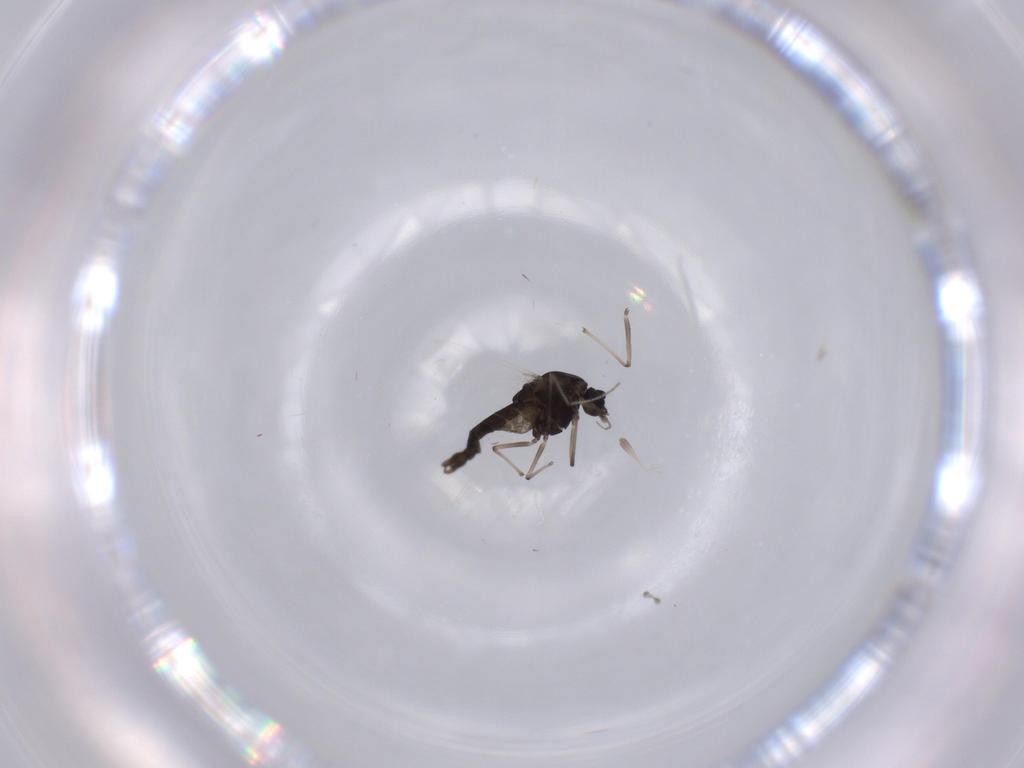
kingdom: Animalia
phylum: Arthropoda
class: Insecta
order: Diptera
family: Chironomidae
